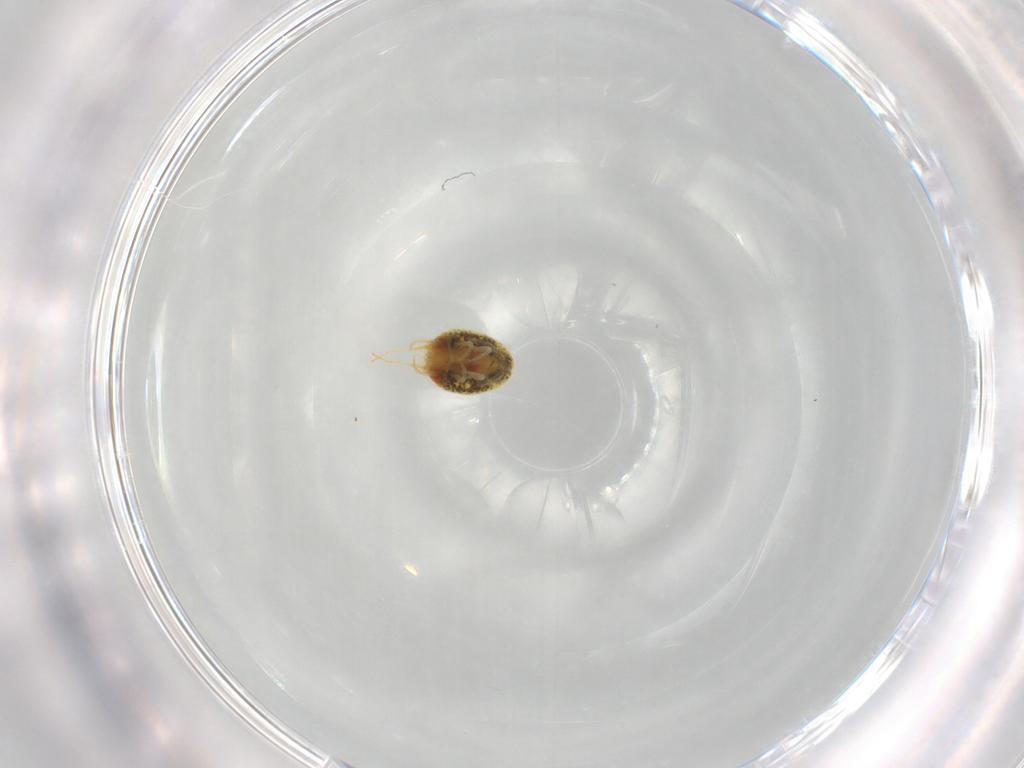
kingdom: Animalia
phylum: Arthropoda
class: Arachnida
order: Trombidiformes
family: Tetranychidae
